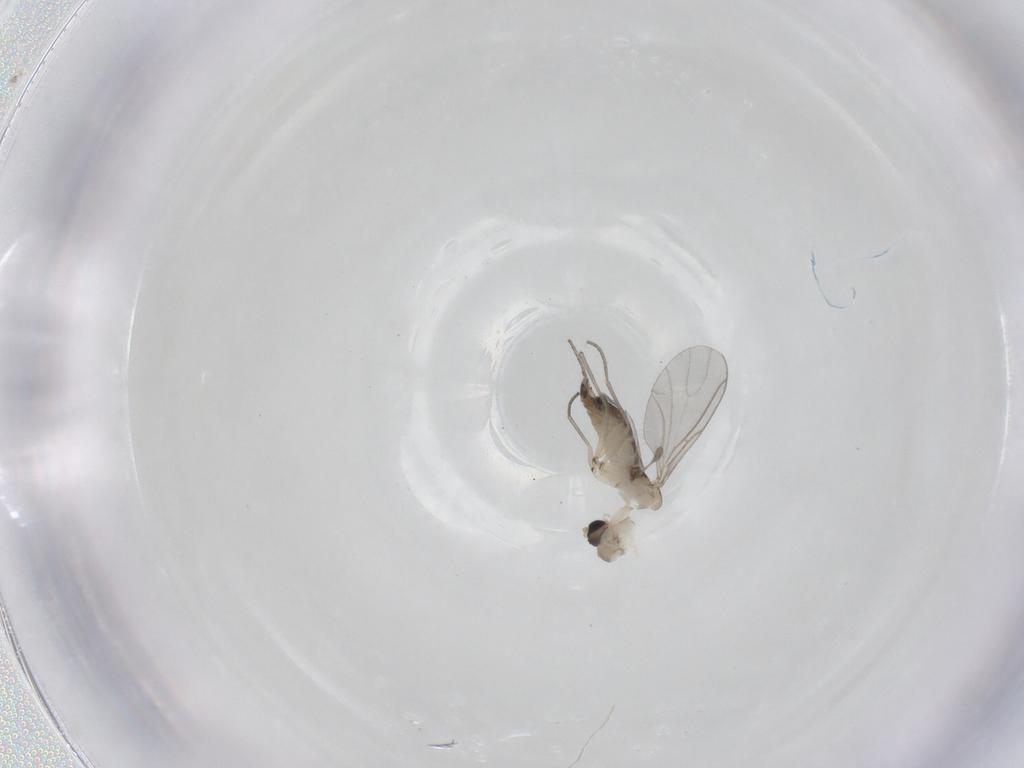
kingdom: Animalia
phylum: Arthropoda
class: Insecta
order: Diptera
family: Sciaridae
